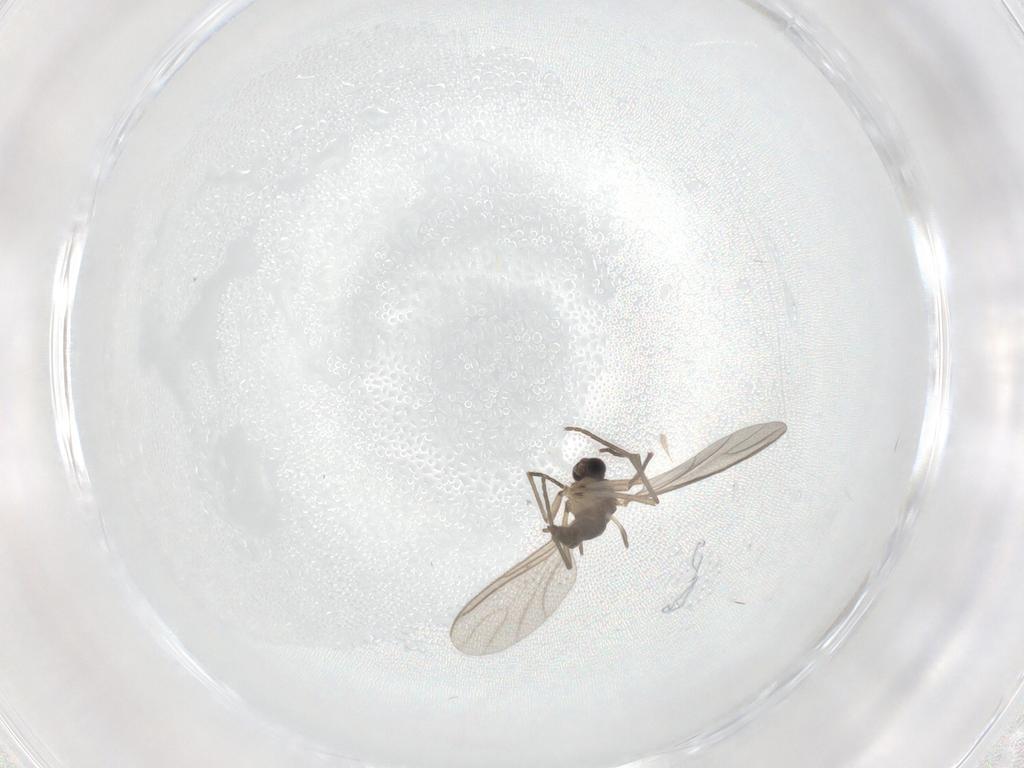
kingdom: Animalia
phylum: Arthropoda
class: Insecta
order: Diptera
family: Sciaridae
